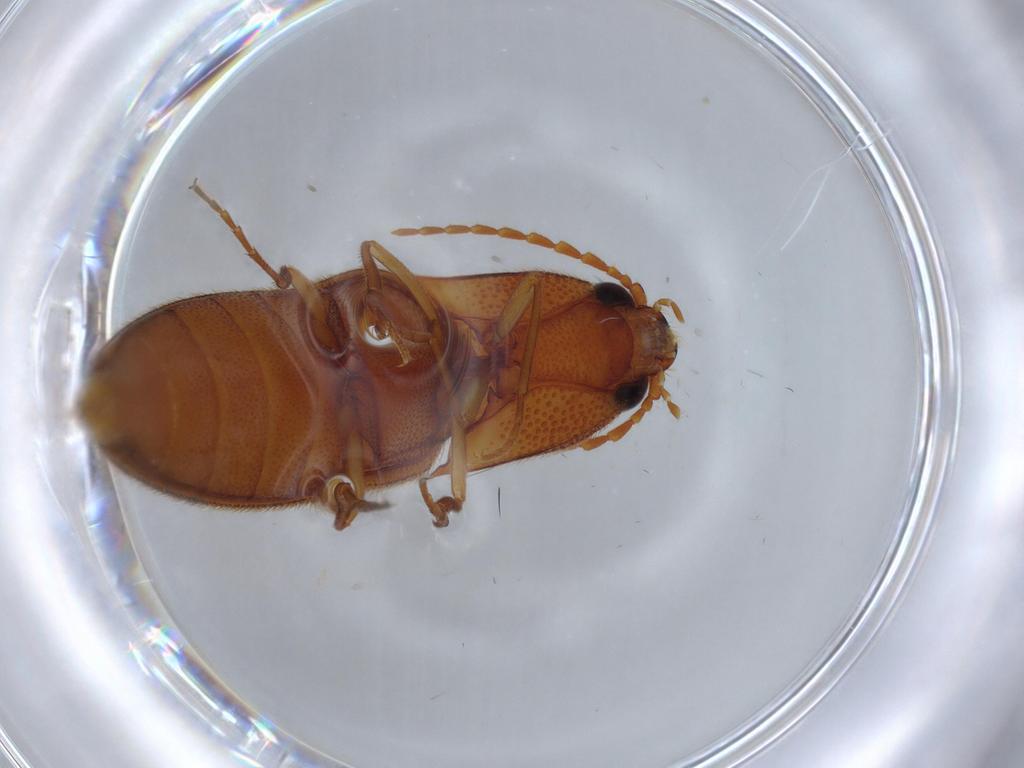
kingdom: Animalia
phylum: Arthropoda
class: Insecta
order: Coleoptera
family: Elateridae
